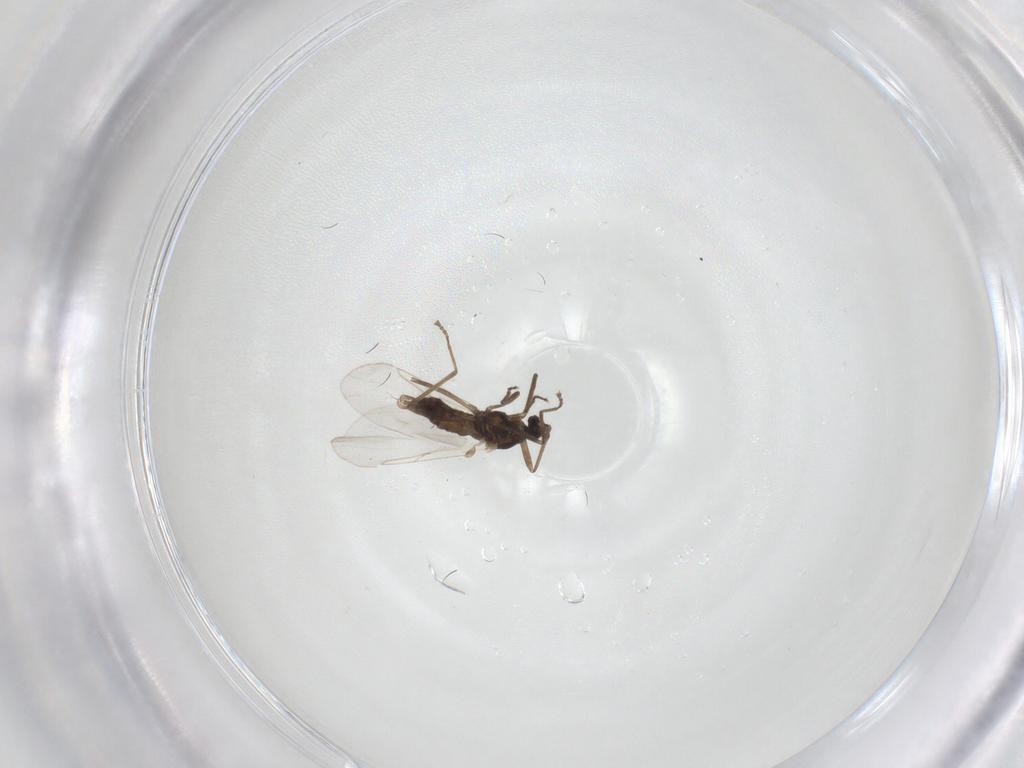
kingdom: Animalia
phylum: Arthropoda
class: Insecta
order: Diptera
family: Cecidomyiidae
